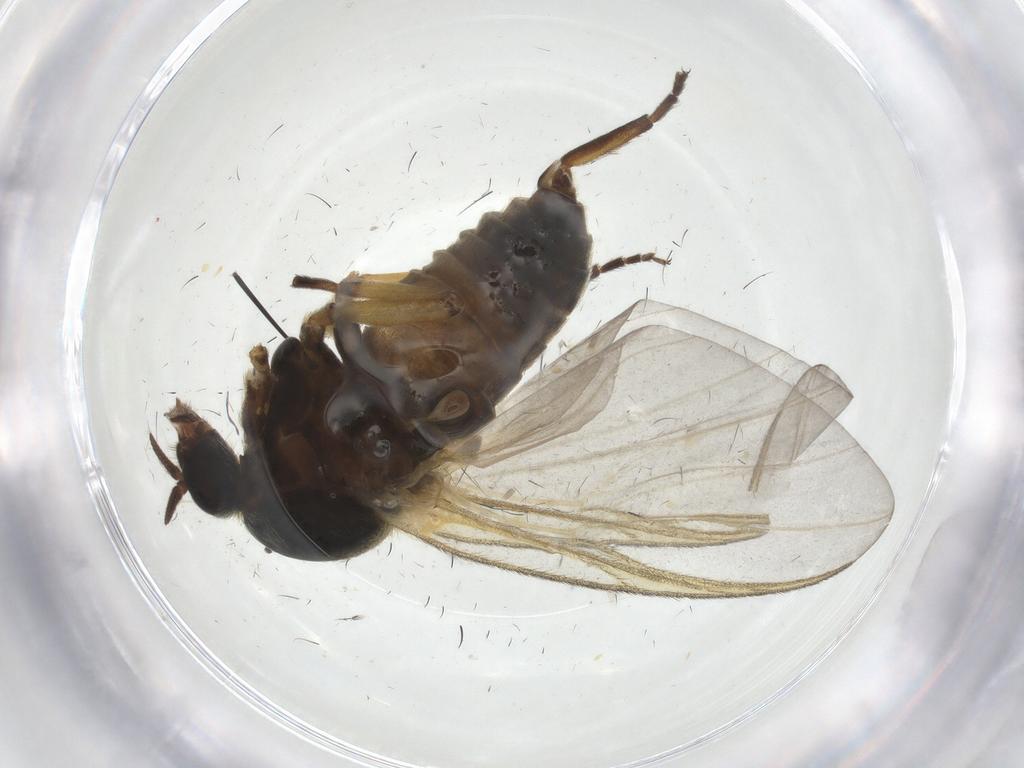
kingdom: Animalia
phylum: Arthropoda
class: Insecta
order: Diptera
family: Simuliidae
